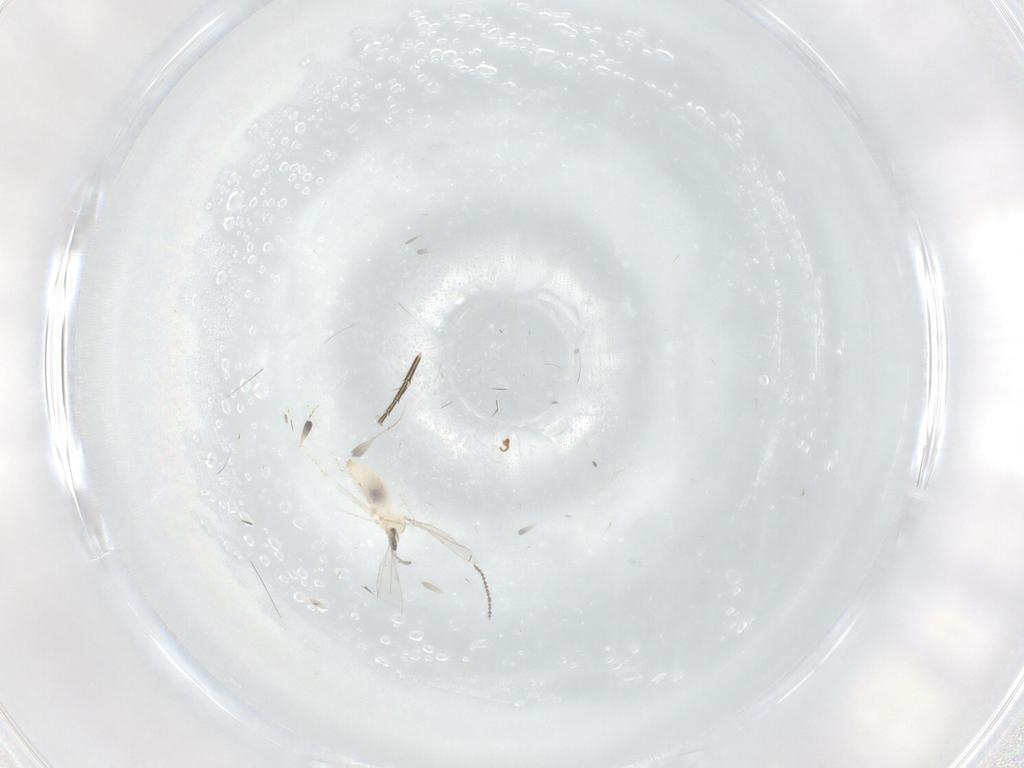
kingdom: Animalia
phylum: Arthropoda
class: Insecta
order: Diptera
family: Cecidomyiidae
